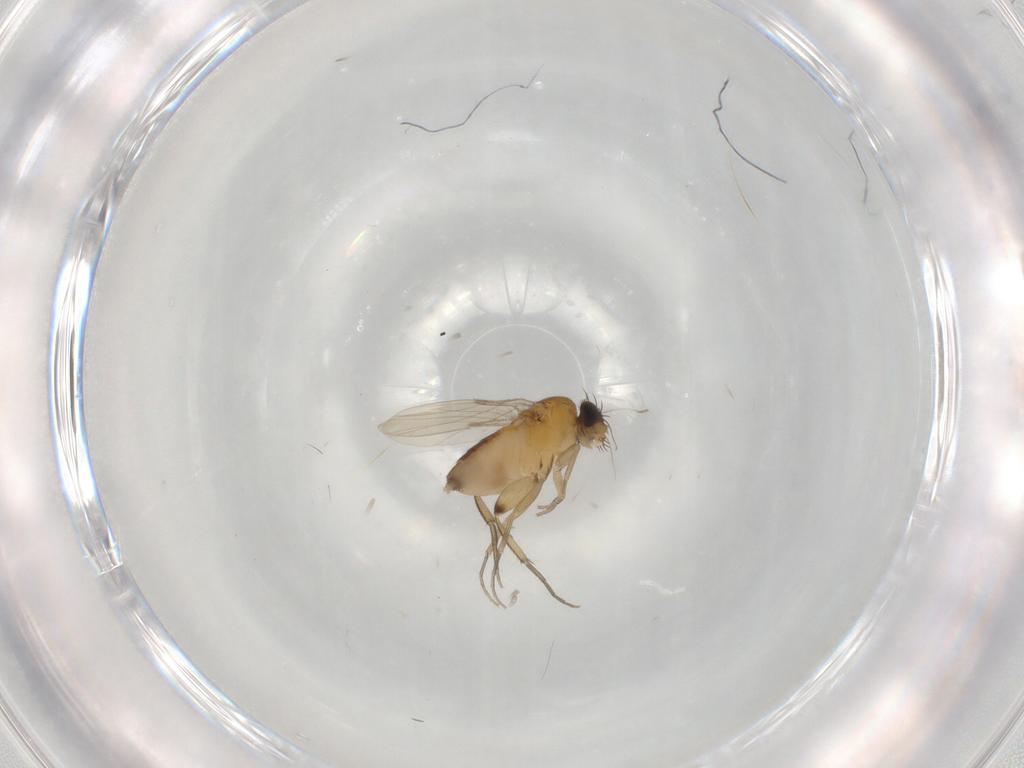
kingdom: Animalia
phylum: Arthropoda
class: Insecta
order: Diptera
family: Phoridae
